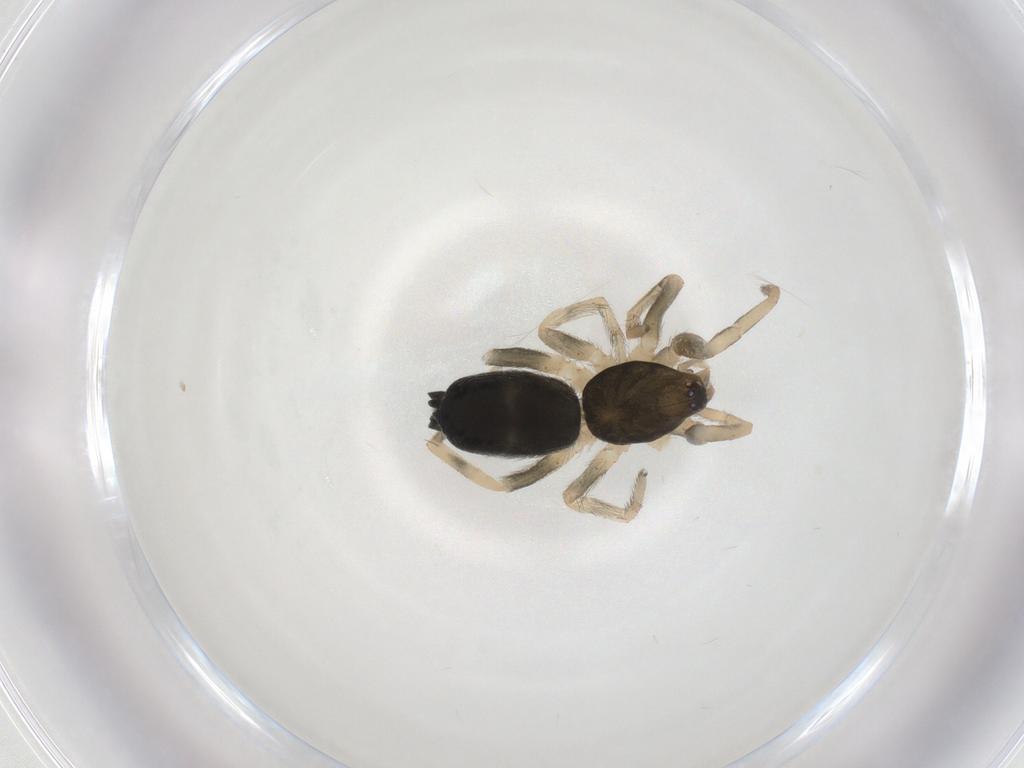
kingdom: Animalia
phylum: Arthropoda
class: Arachnida
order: Araneae
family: Gnaphosidae
